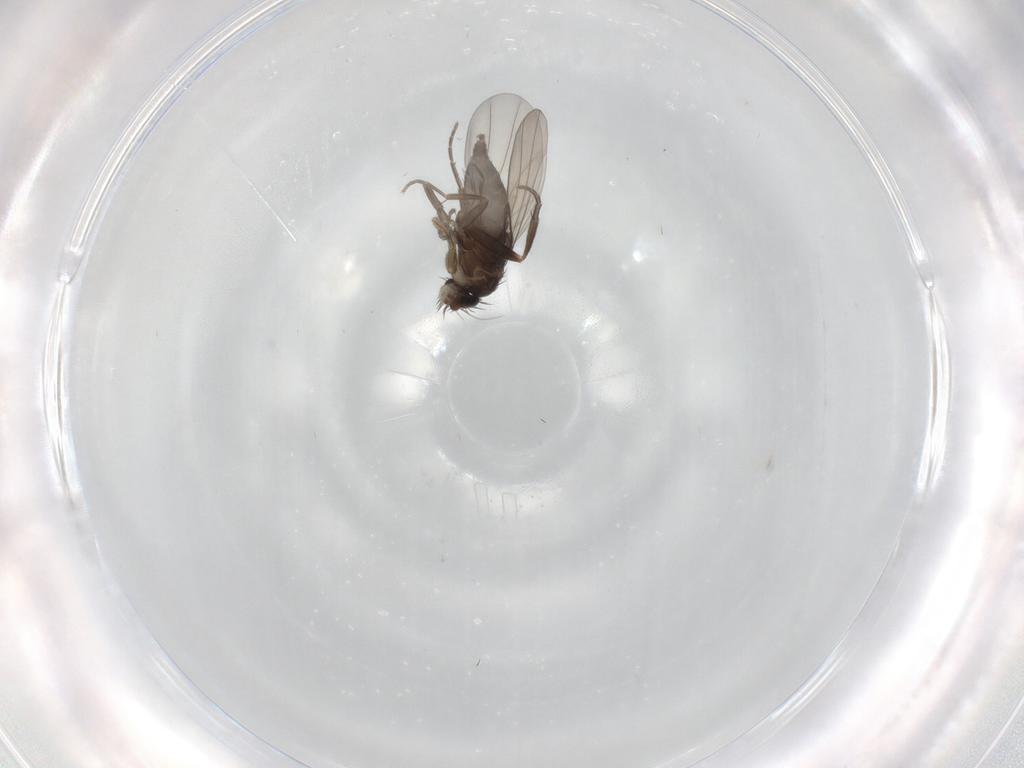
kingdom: Animalia
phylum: Arthropoda
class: Insecta
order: Diptera
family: Phoridae
